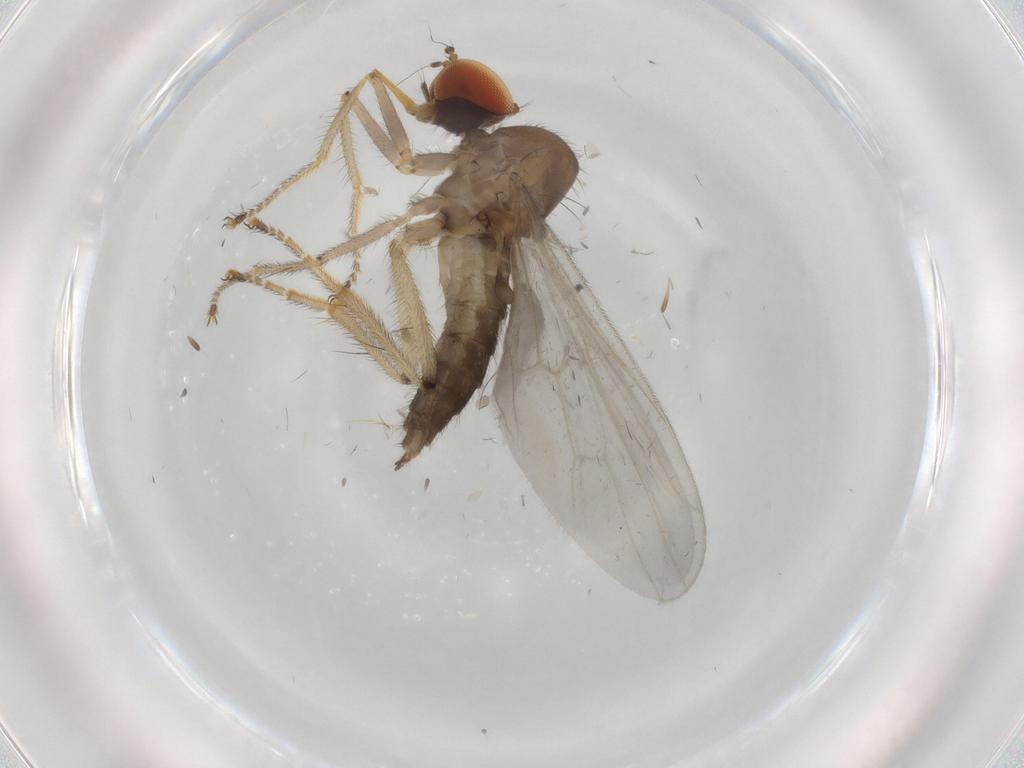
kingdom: Animalia
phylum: Arthropoda
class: Insecta
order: Diptera
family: Hybotidae
